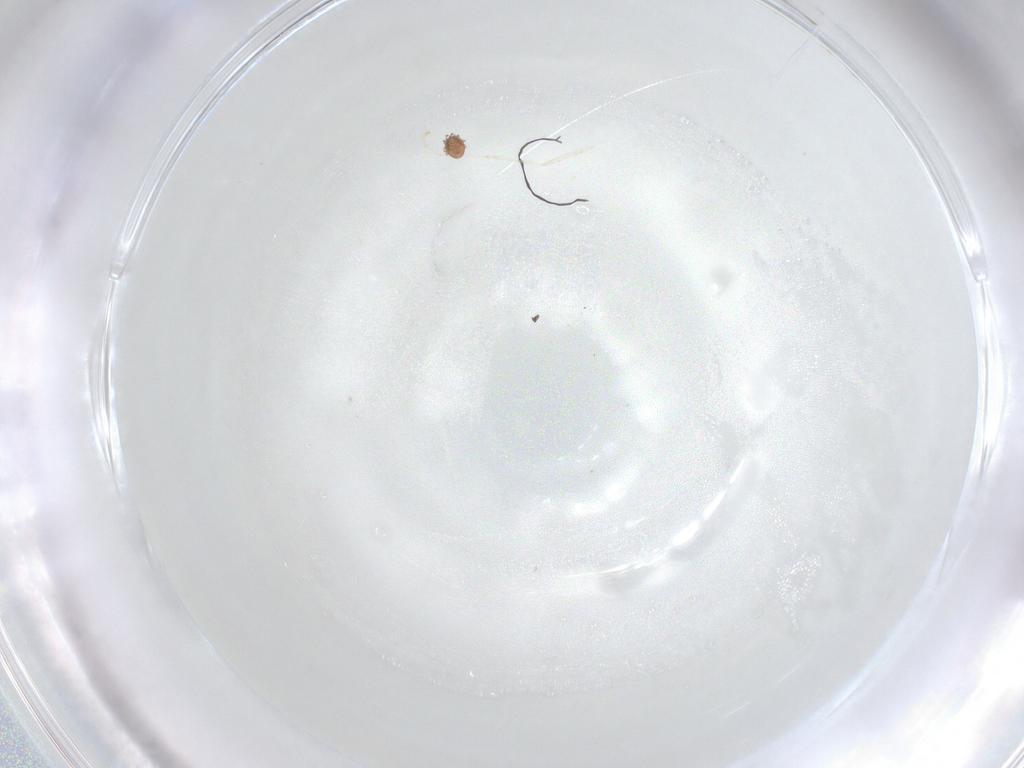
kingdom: Animalia
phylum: Arthropoda
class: Insecta
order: Diptera
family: Cecidomyiidae
